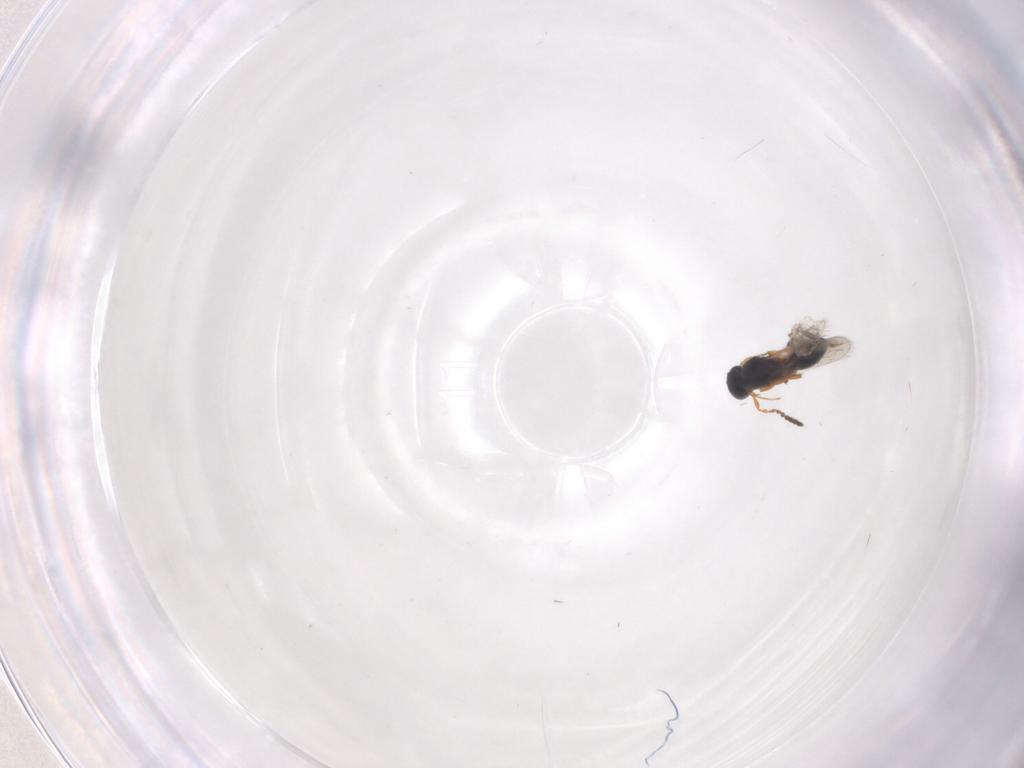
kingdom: Animalia
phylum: Arthropoda
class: Insecta
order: Hymenoptera
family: Platygastridae
